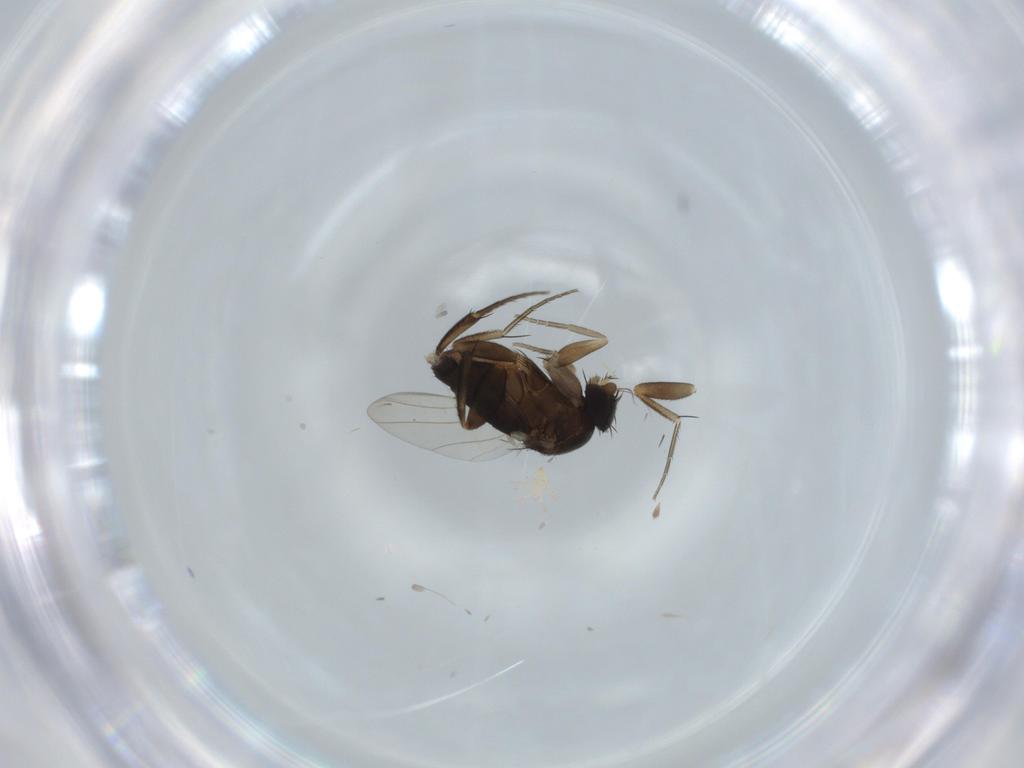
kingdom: Animalia
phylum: Arthropoda
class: Insecta
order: Diptera
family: Phoridae
